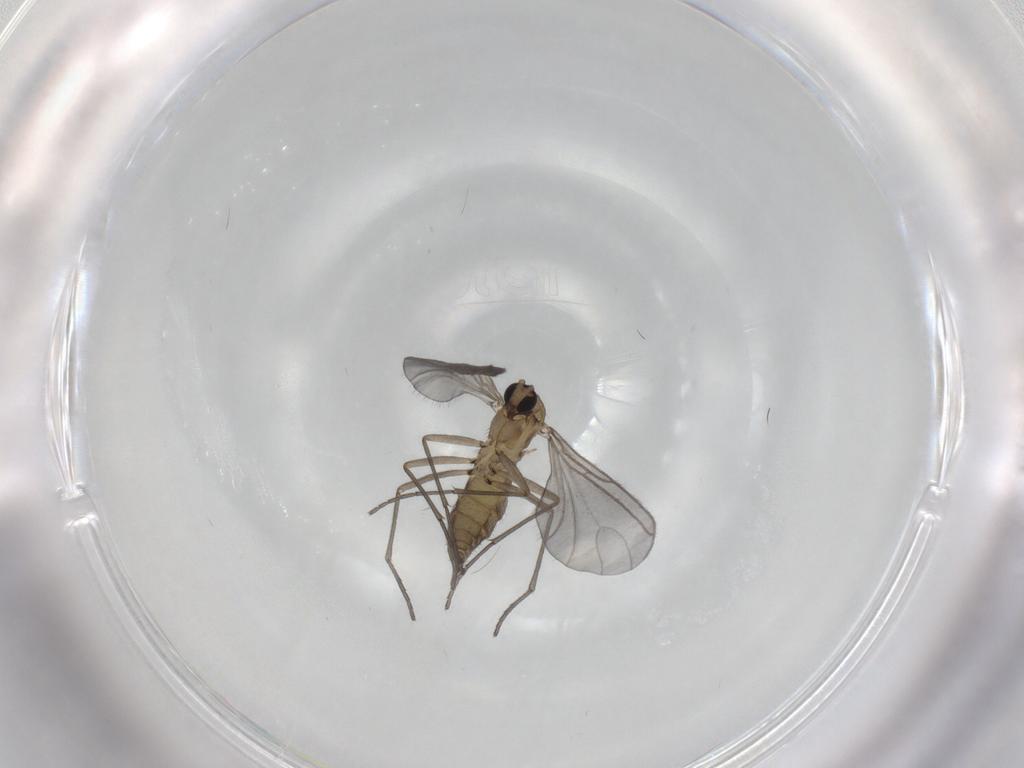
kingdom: Animalia
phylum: Arthropoda
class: Insecta
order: Diptera
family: Sciaridae
